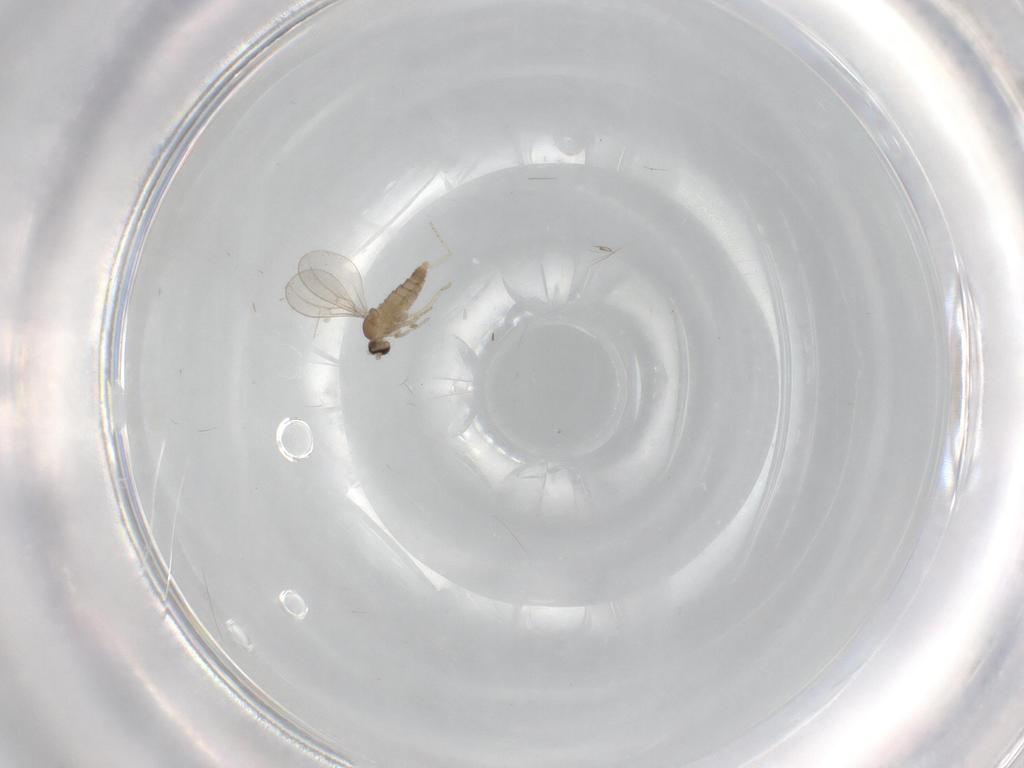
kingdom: Animalia
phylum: Arthropoda
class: Insecta
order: Diptera
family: Cecidomyiidae
